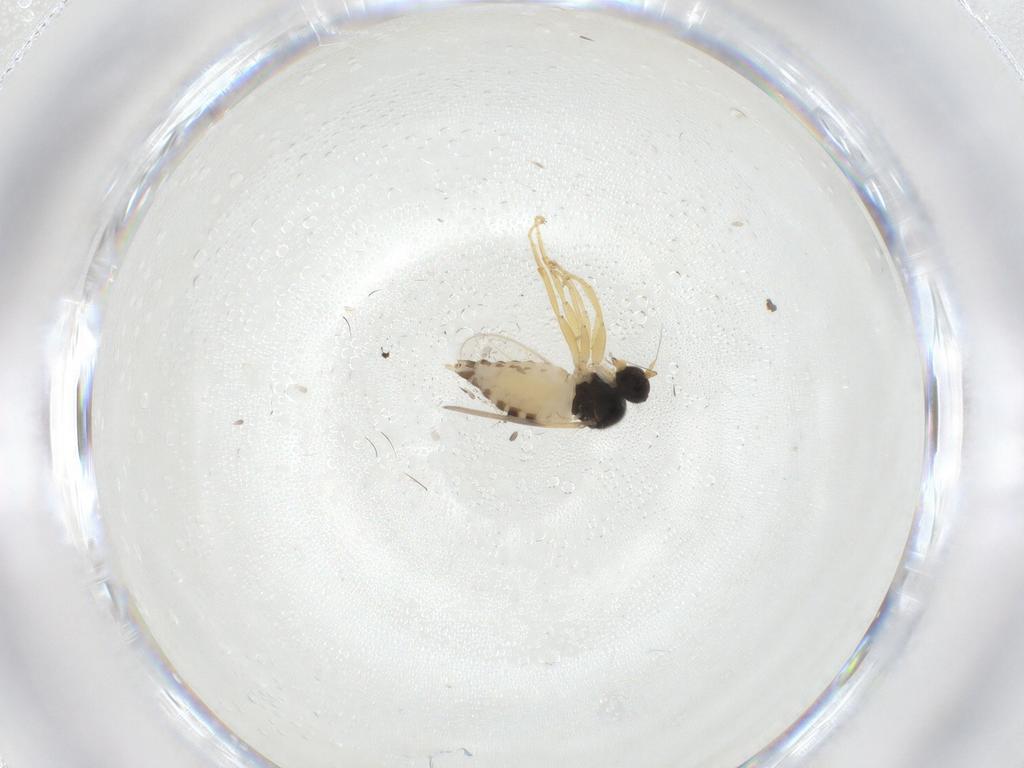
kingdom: Animalia
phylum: Arthropoda
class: Insecta
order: Diptera
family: Hybotidae
